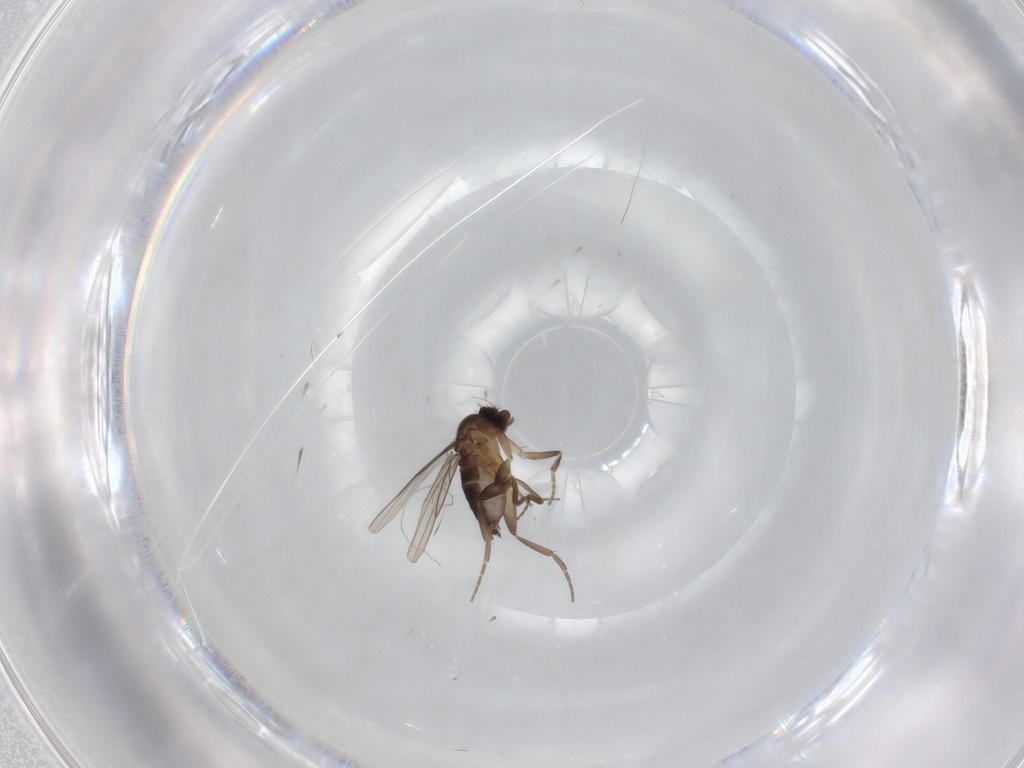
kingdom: Animalia
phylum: Arthropoda
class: Insecta
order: Diptera
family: Phoridae
